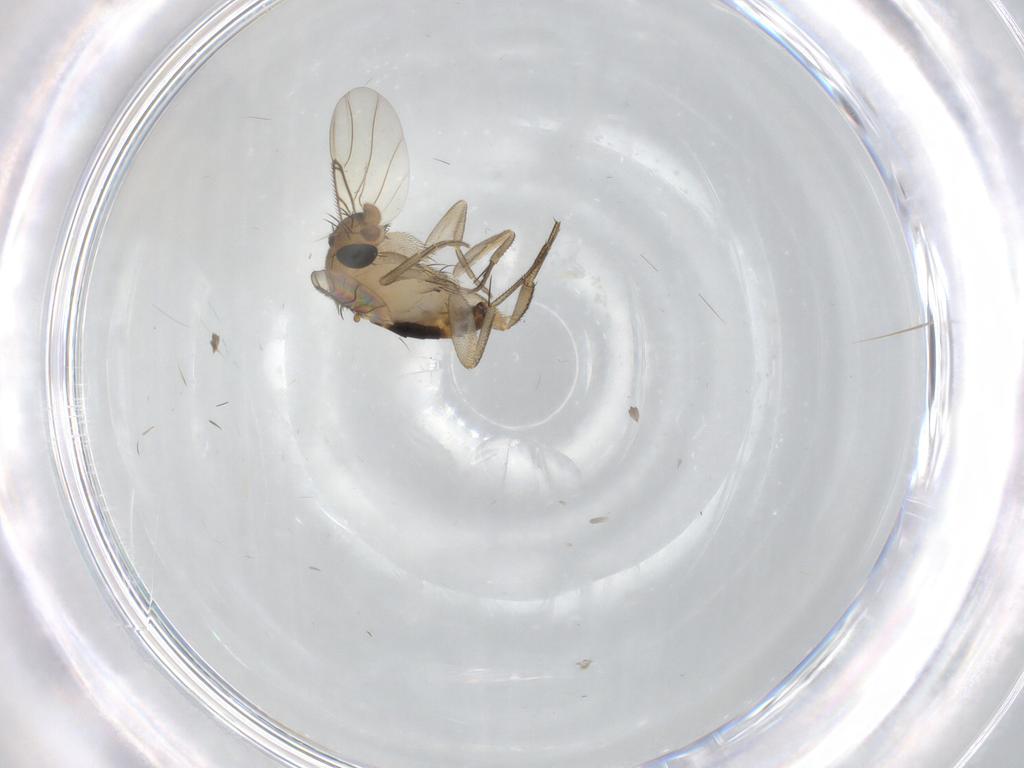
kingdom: Animalia
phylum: Arthropoda
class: Insecta
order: Diptera
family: Phoridae
